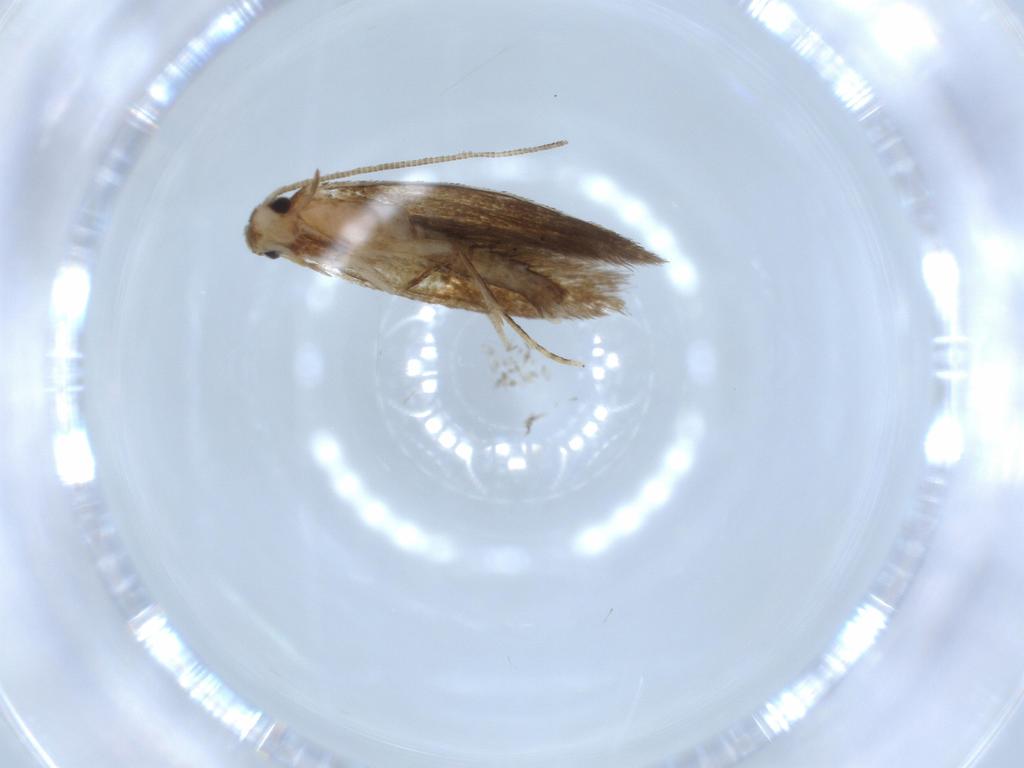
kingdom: Animalia
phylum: Arthropoda
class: Insecta
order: Lepidoptera
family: Tineidae
